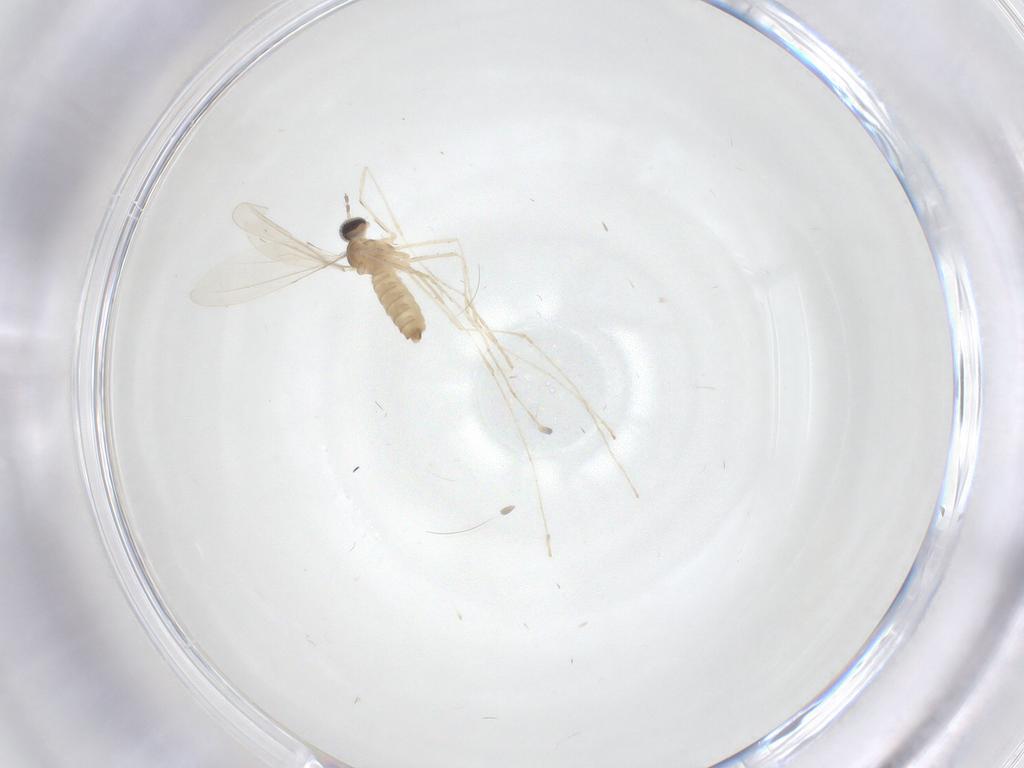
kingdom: Animalia
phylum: Arthropoda
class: Insecta
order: Diptera
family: Cecidomyiidae
